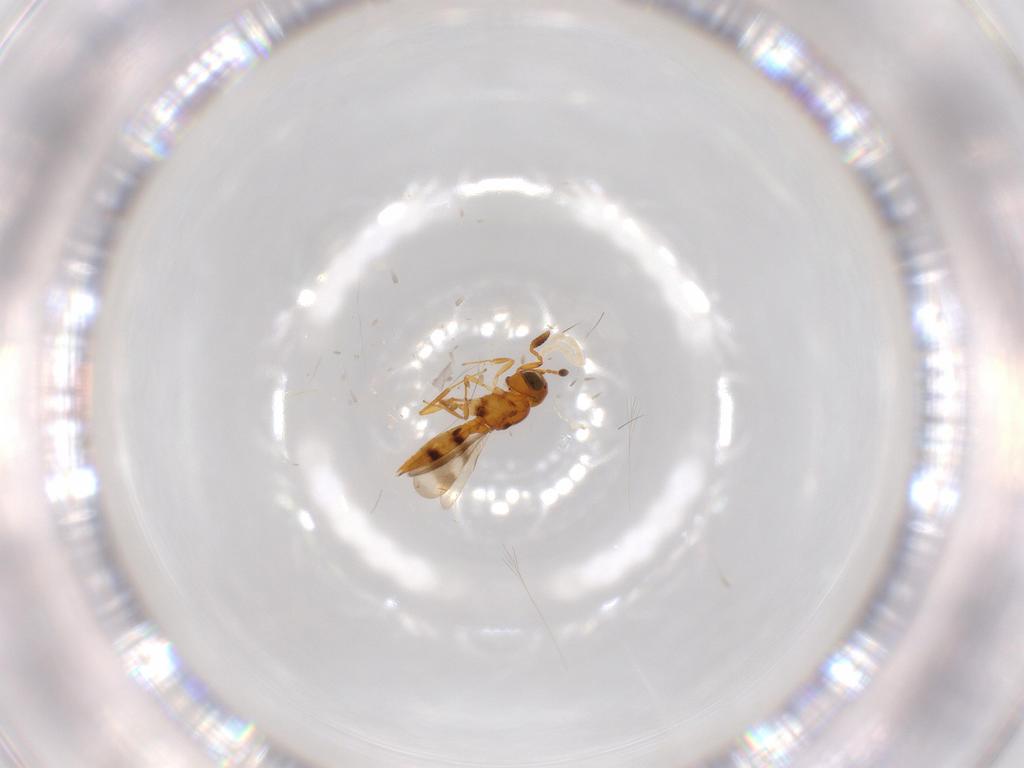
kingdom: Animalia
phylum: Arthropoda
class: Insecta
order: Hymenoptera
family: Scelionidae
